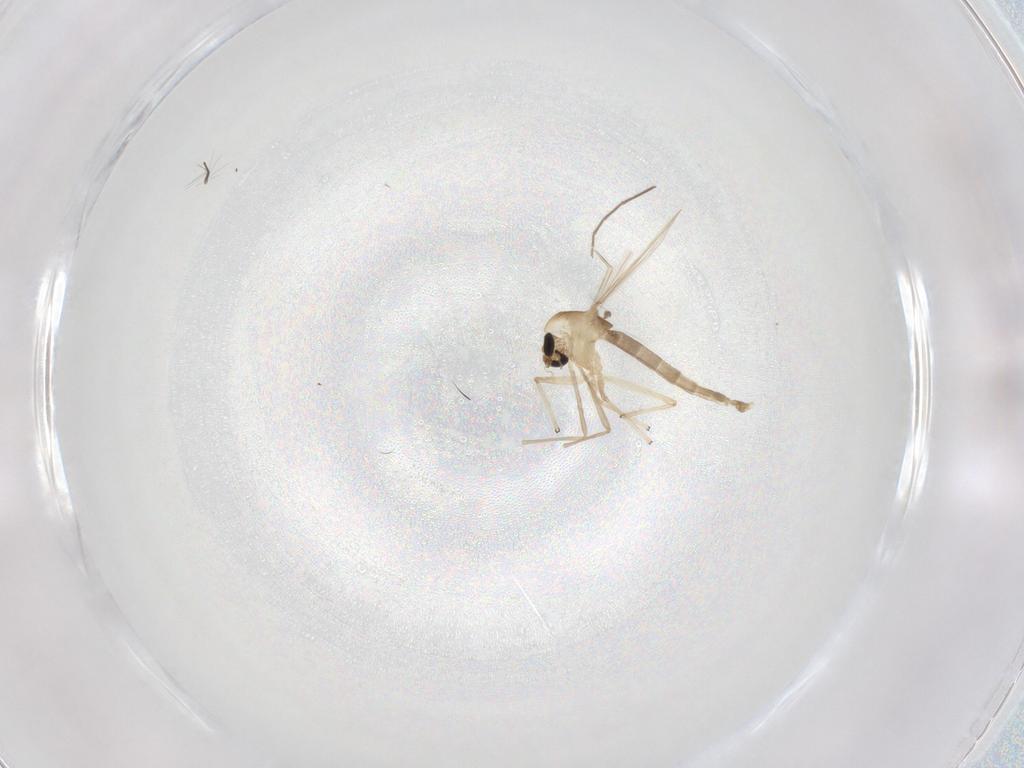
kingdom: Animalia
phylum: Arthropoda
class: Insecta
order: Diptera
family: Chironomidae
